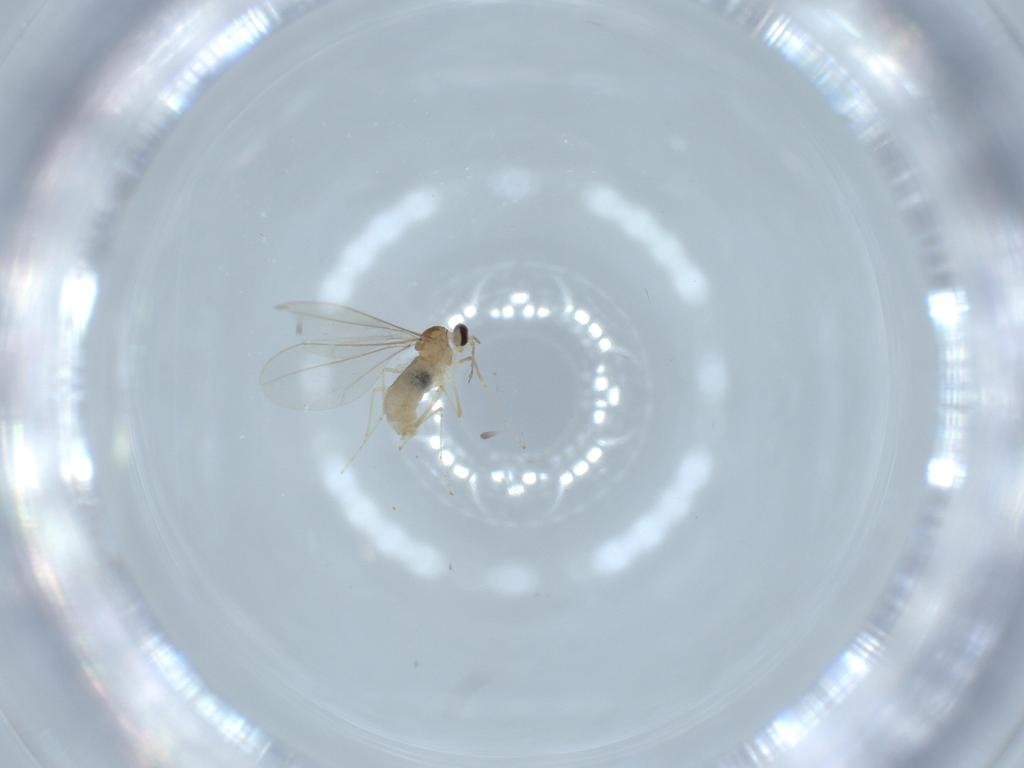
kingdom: Animalia
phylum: Arthropoda
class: Insecta
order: Diptera
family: Cecidomyiidae
